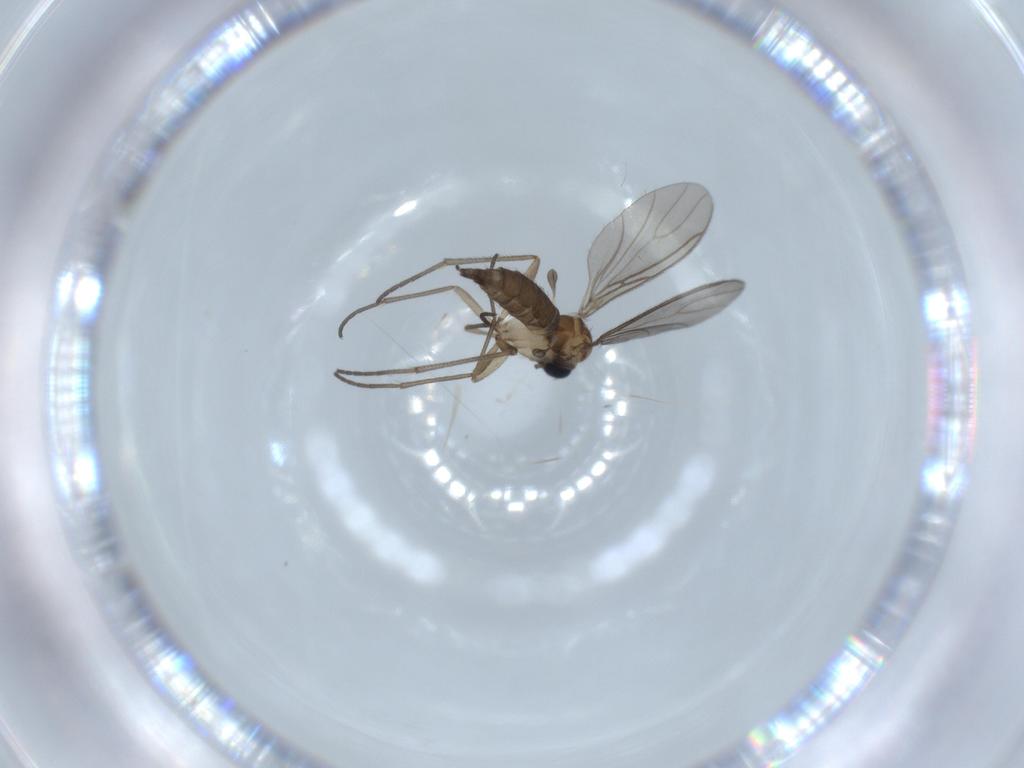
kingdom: Animalia
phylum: Arthropoda
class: Insecta
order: Diptera
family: Sciaridae
